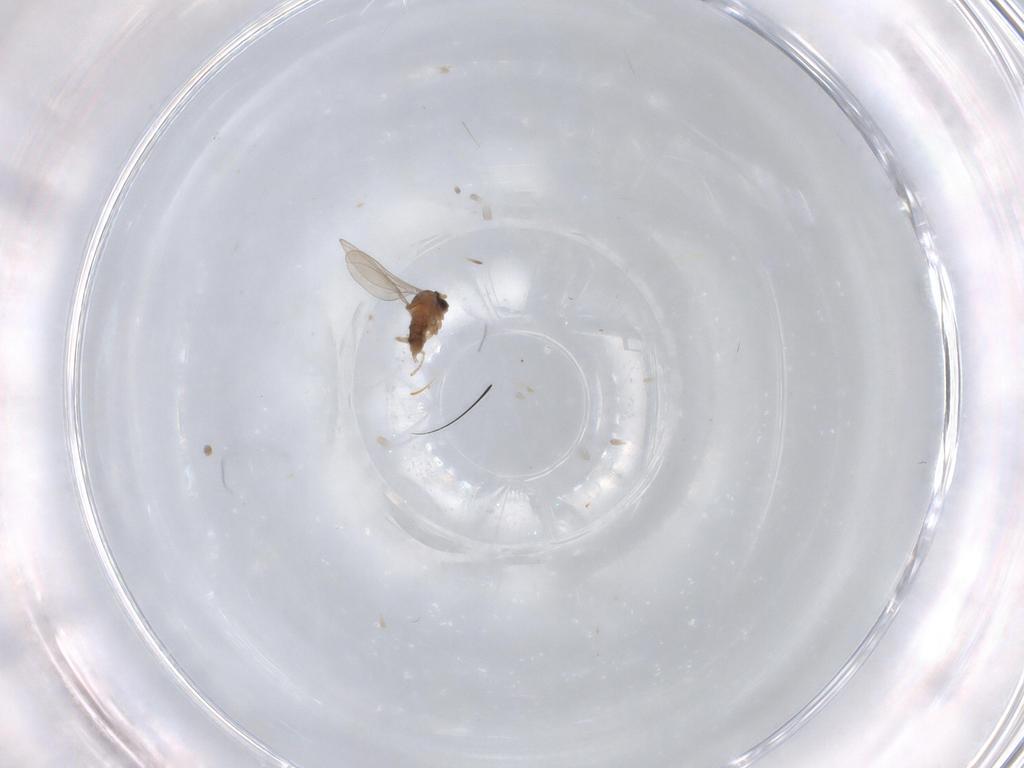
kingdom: Animalia
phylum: Arthropoda
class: Insecta
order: Diptera
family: Cecidomyiidae
